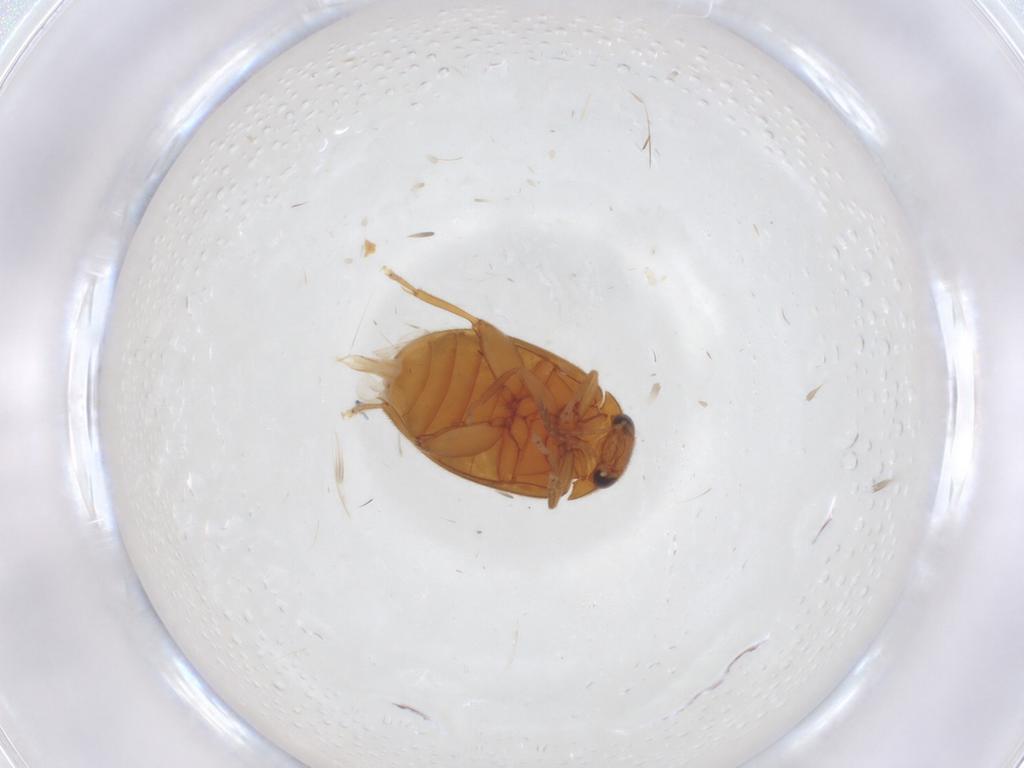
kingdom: Animalia
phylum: Arthropoda
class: Insecta
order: Coleoptera
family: Scirtidae
